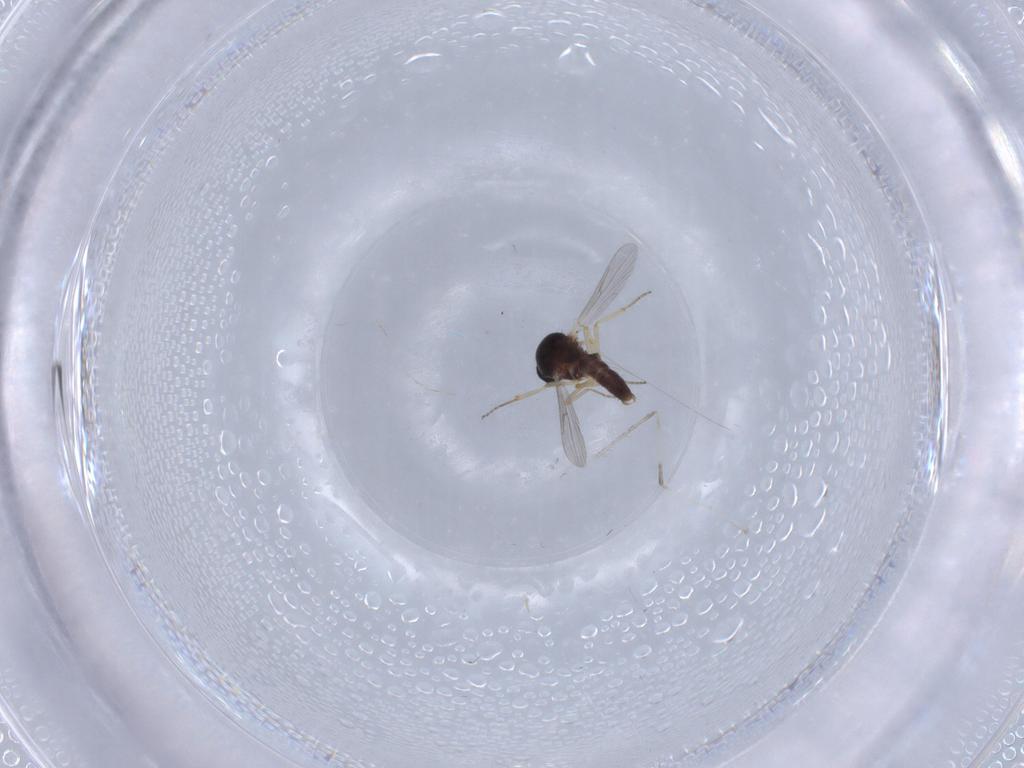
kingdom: Animalia
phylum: Arthropoda
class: Insecta
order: Diptera
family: Ceratopogonidae
